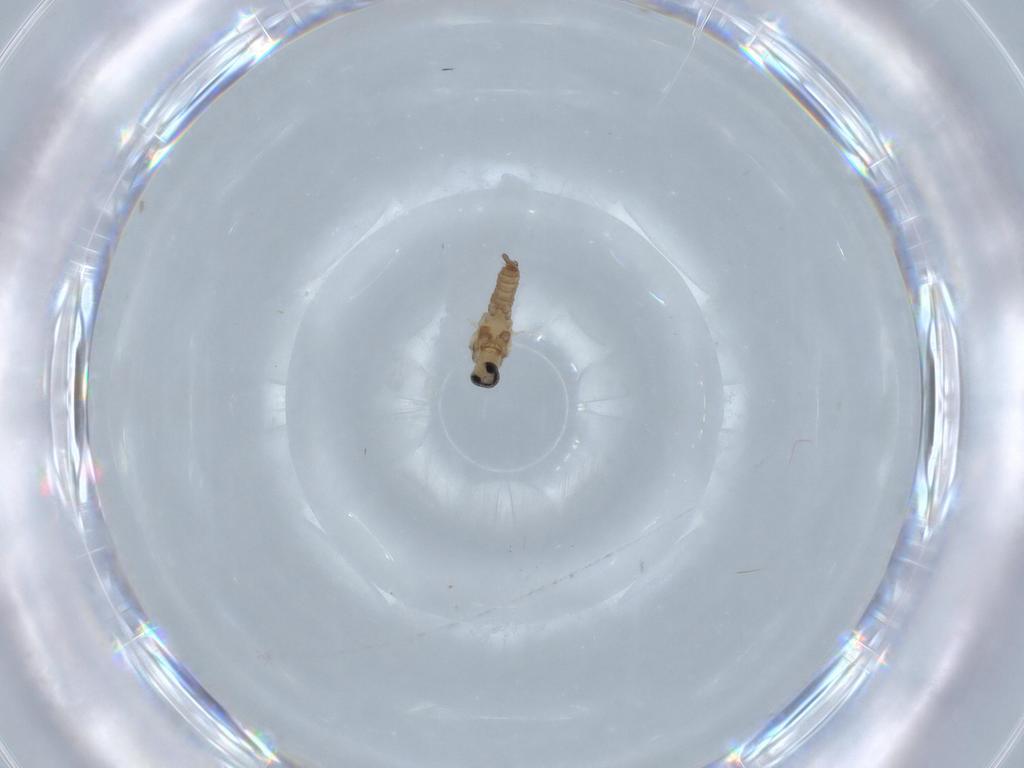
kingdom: Animalia
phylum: Arthropoda
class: Insecta
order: Diptera
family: Cecidomyiidae
